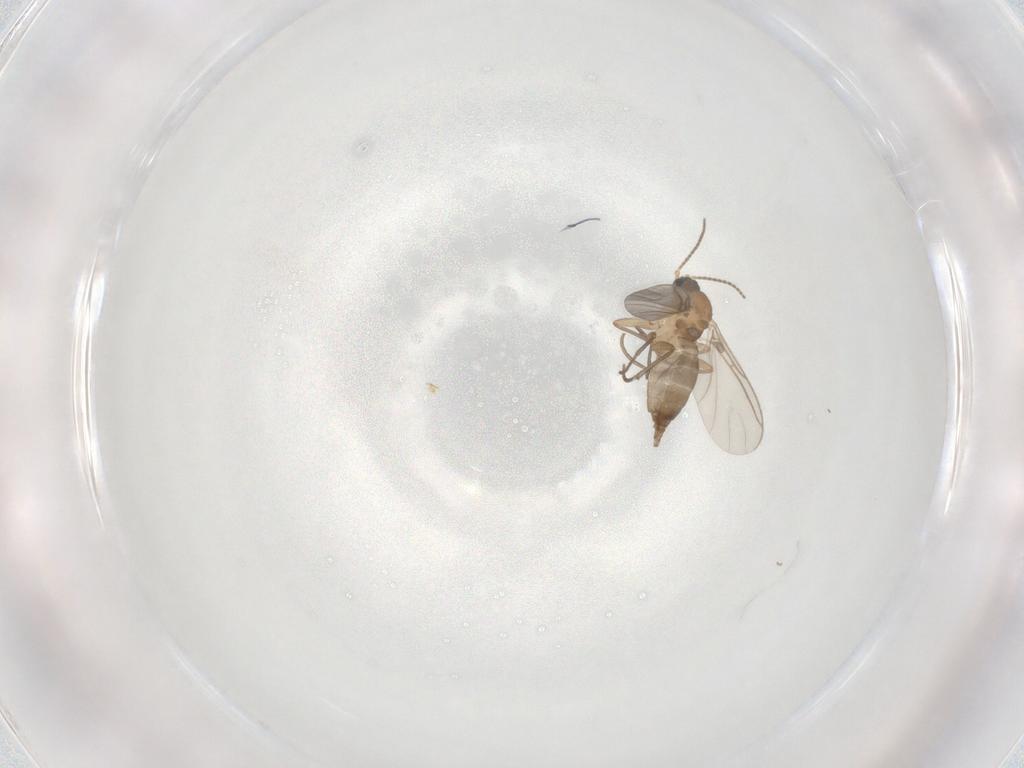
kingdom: Animalia
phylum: Arthropoda
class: Insecta
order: Diptera
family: Sciaridae
